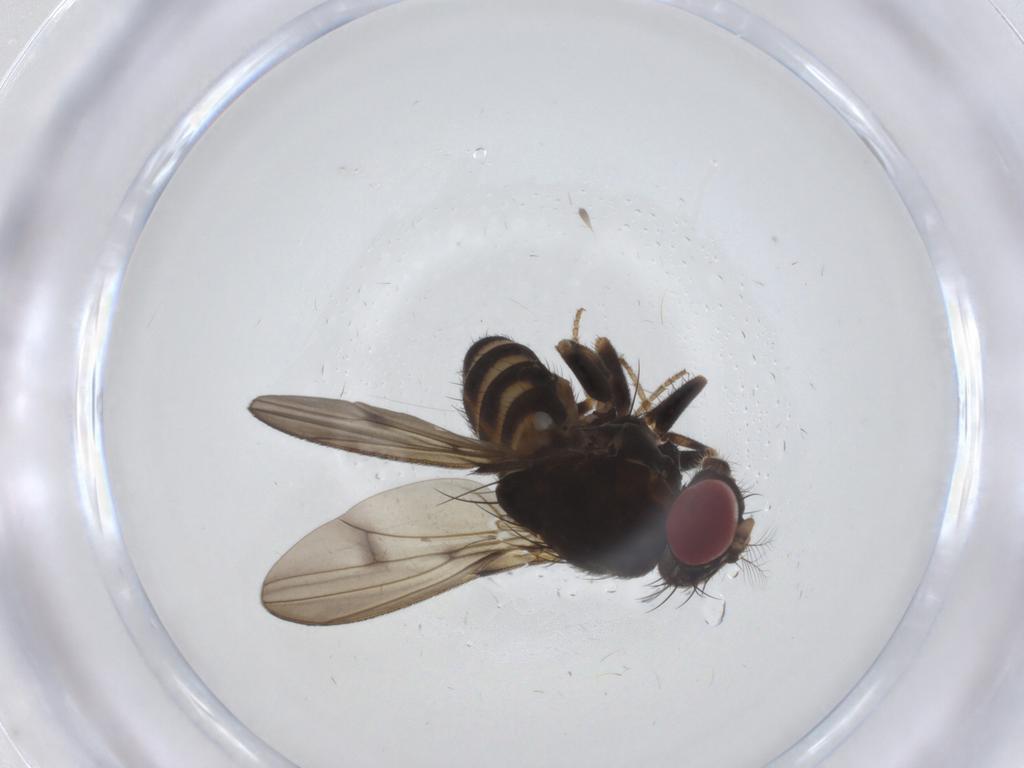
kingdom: Animalia
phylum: Arthropoda
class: Insecta
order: Diptera
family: Drosophilidae
